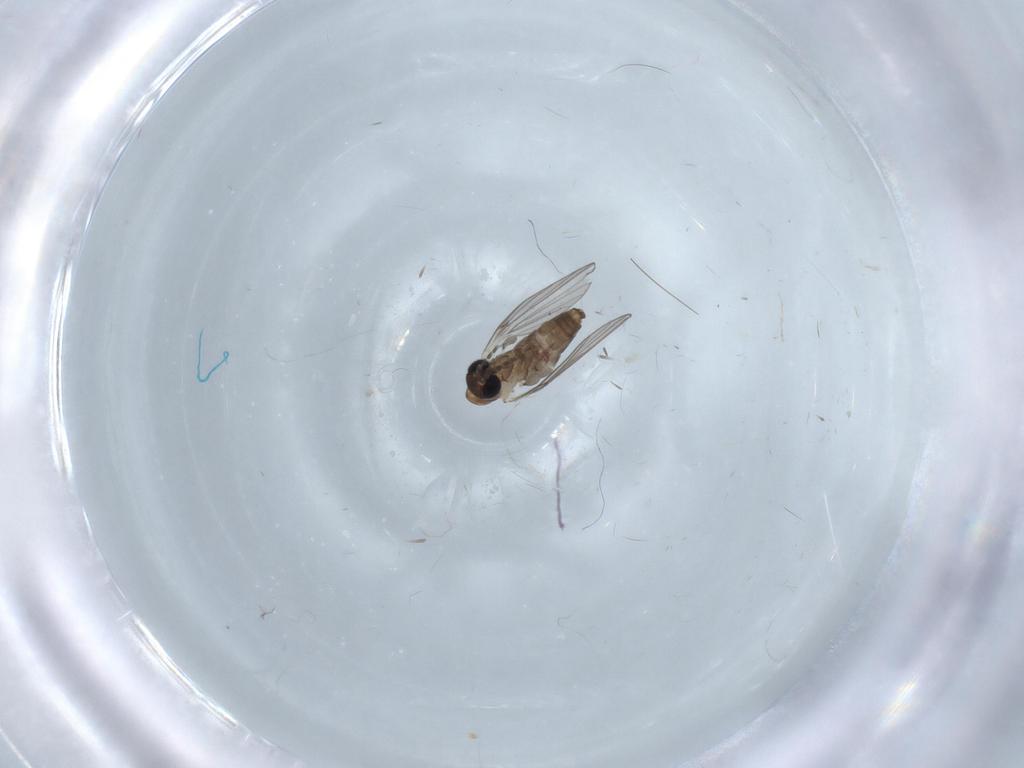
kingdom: Animalia
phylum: Arthropoda
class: Insecta
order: Diptera
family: Psychodidae
